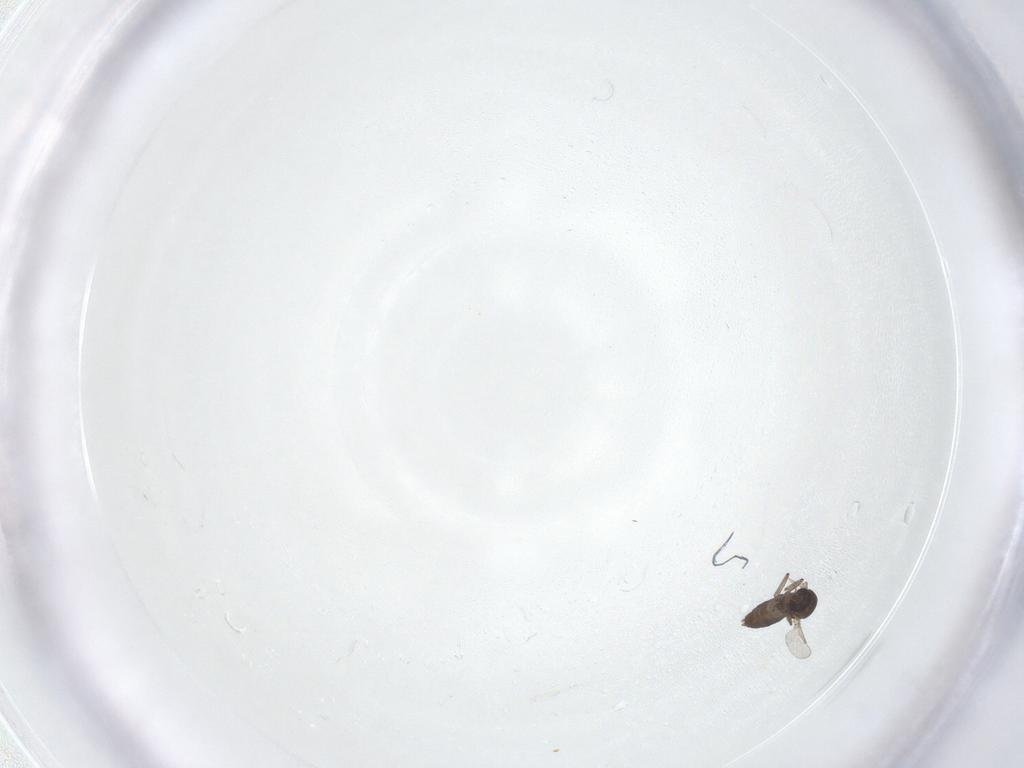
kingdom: Animalia
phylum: Arthropoda
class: Insecta
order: Diptera
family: Ceratopogonidae
